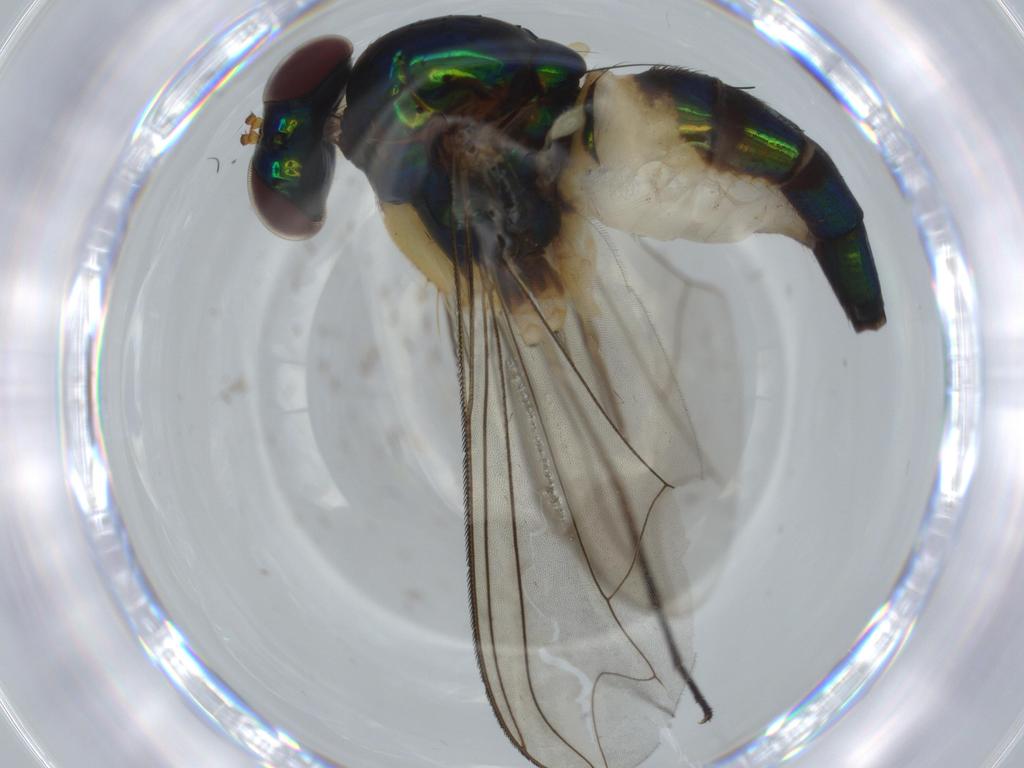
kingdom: Animalia
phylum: Arthropoda
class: Insecta
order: Diptera
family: Dolichopodidae
